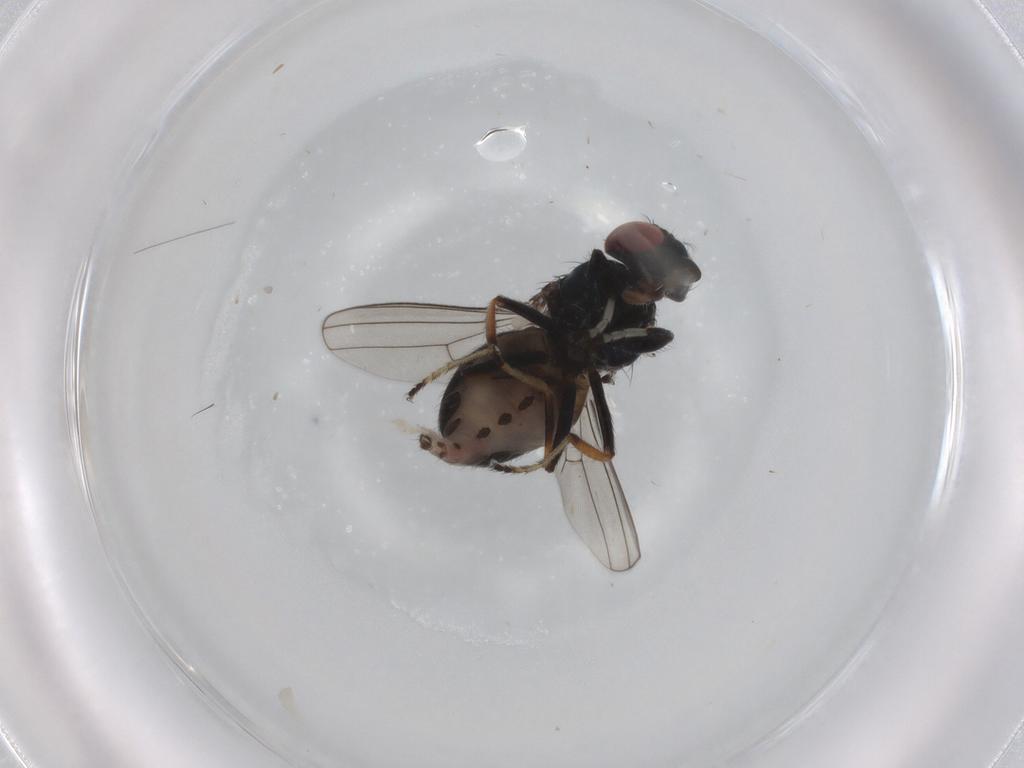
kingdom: Animalia
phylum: Arthropoda
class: Insecta
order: Diptera
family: Ephydridae
